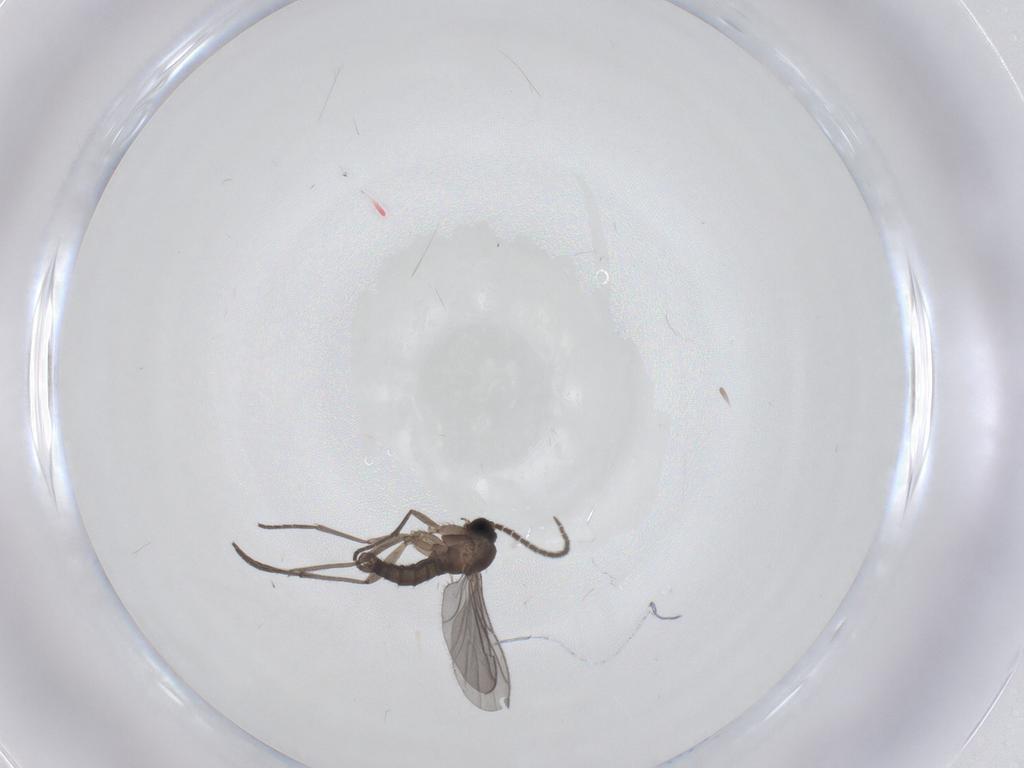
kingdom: Animalia
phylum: Arthropoda
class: Insecta
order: Diptera
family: Sciaridae
